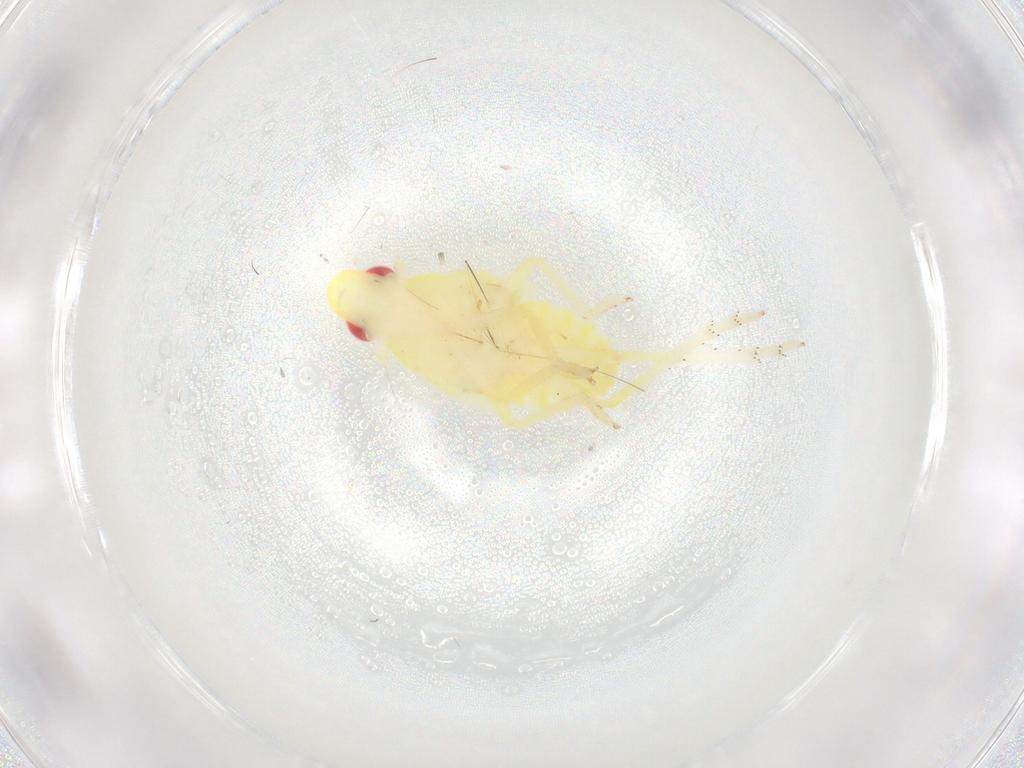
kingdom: Animalia
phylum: Arthropoda
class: Insecta
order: Hemiptera
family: Tropiduchidae
